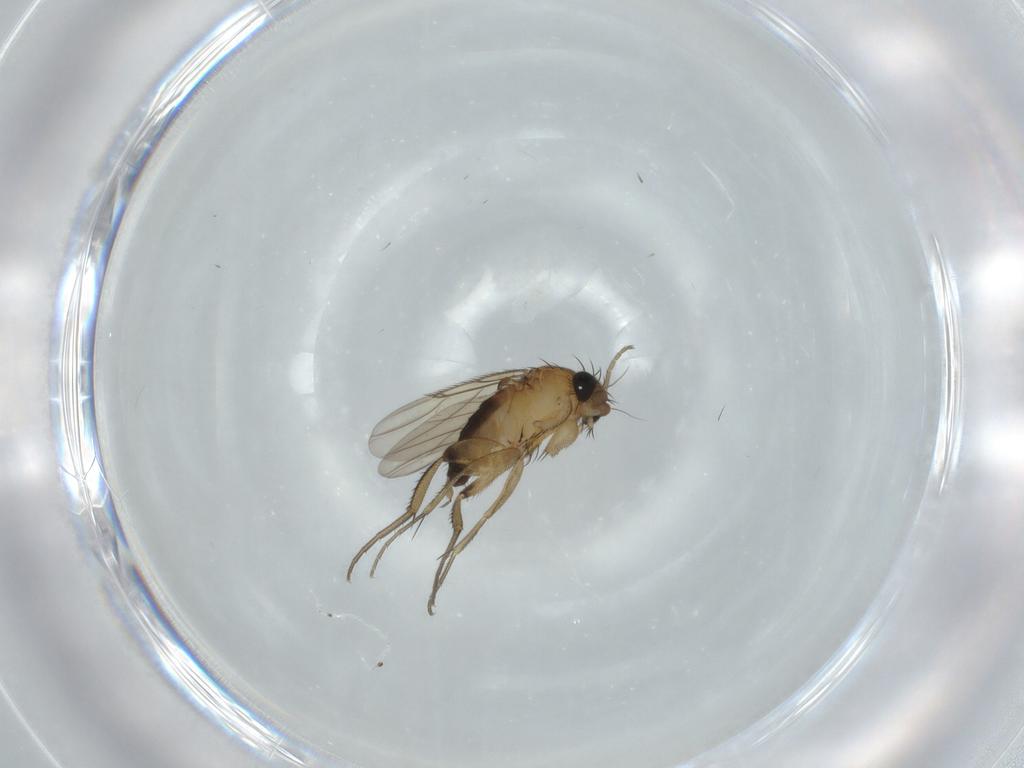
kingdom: Animalia
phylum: Arthropoda
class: Insecta
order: Diptera
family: Phoridae
